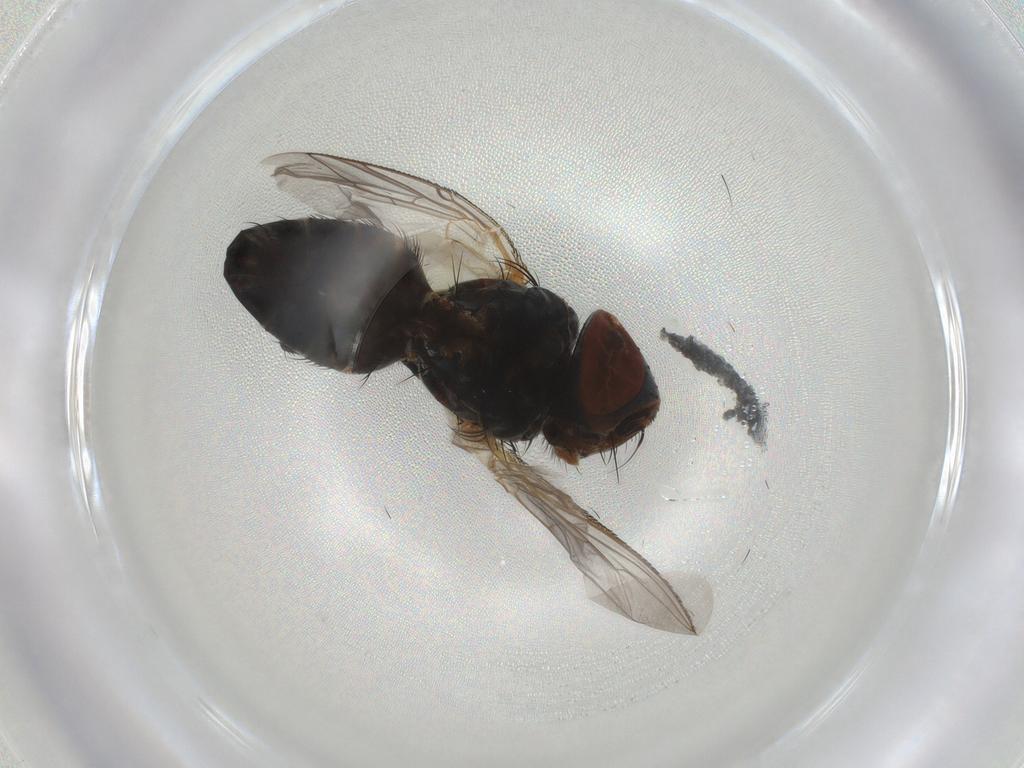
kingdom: Animalia
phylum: Arthropoda
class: Insecta
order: Diptera
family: Sarcophagidae
